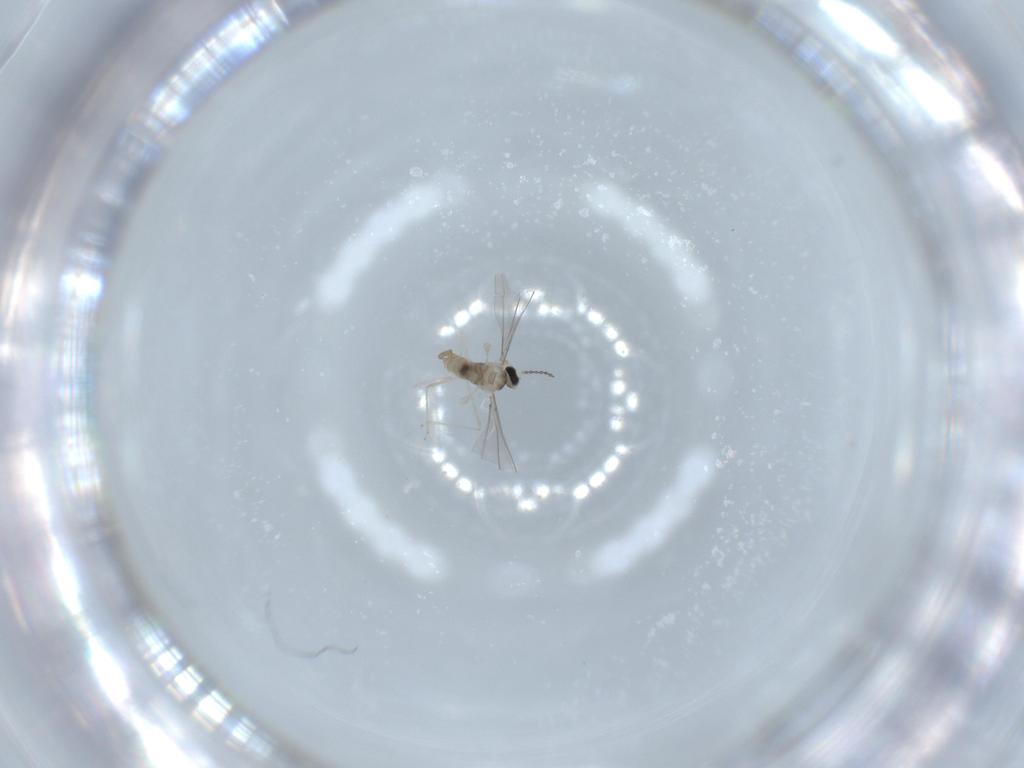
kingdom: Animalia
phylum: Arthropoda
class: Insecta
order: Diptera
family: Cecidomyiidae
